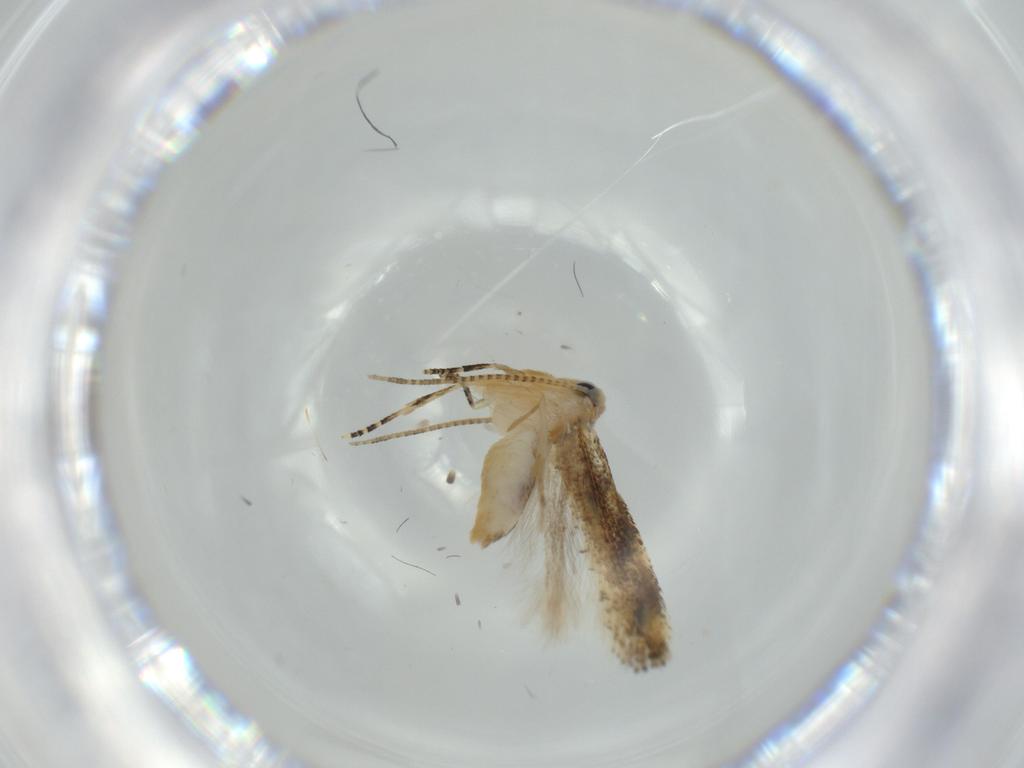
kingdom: Animalia
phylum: Arthropoda
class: Insecta
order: Lepidoptera
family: Bucculatricidae
